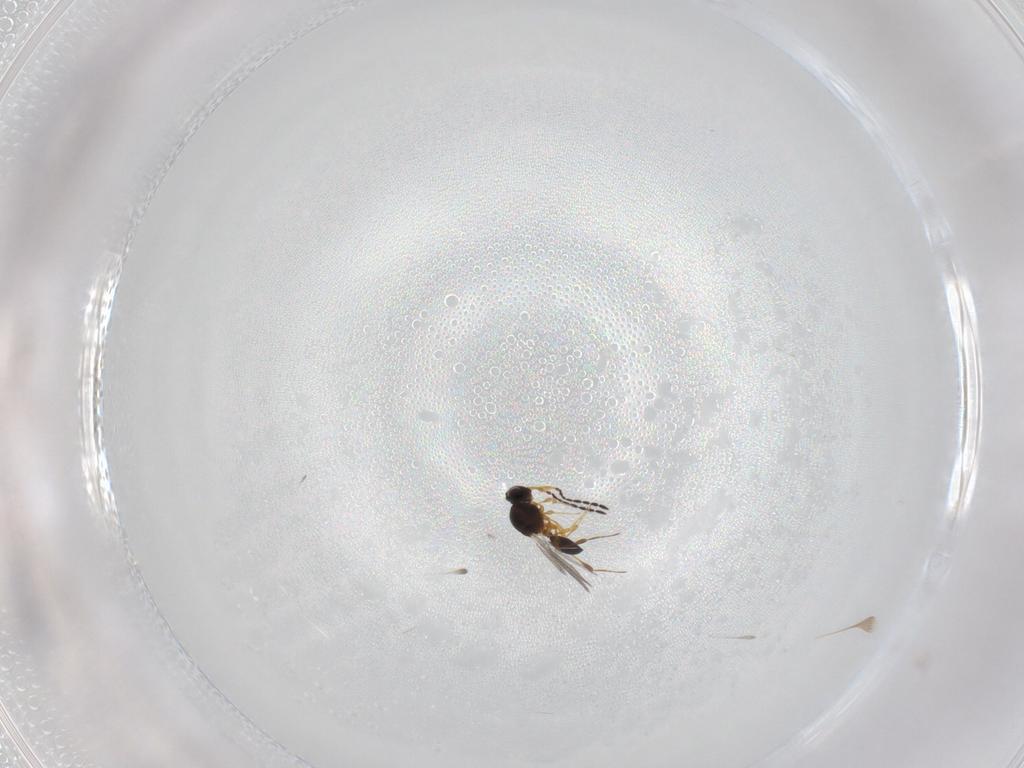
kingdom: Animalia
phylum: Arthropoda
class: Insecta
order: Hymenoptera
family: Platygastridae
